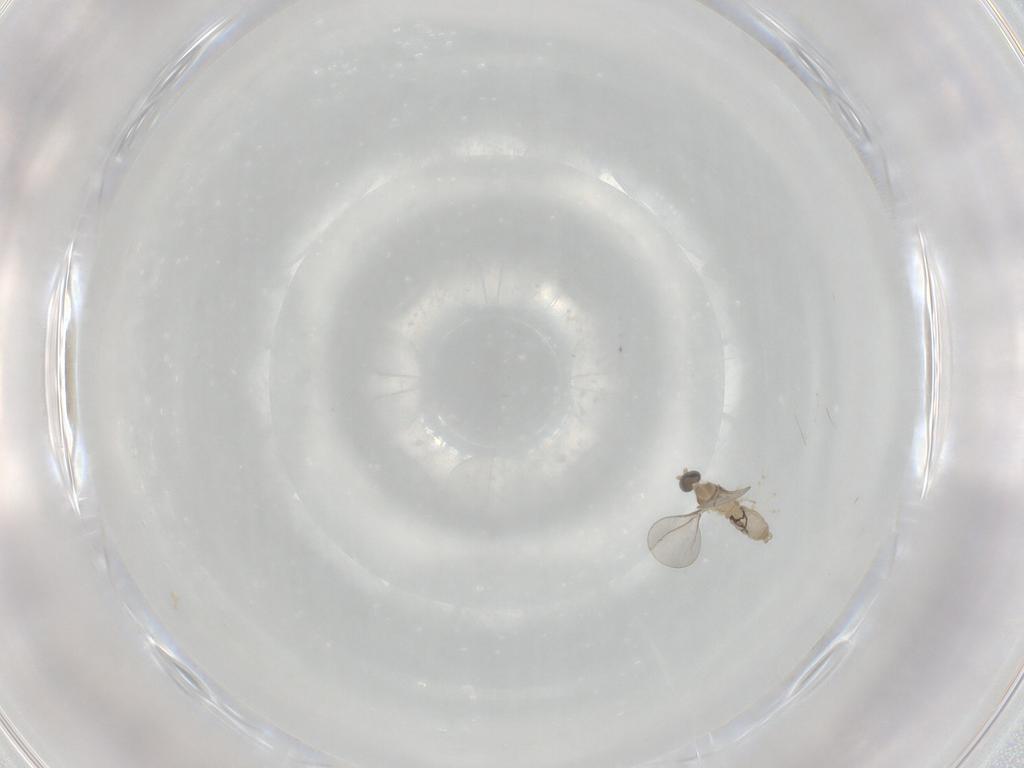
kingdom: Animalia
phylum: Arthropoda
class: Insecta
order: Diptera
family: Cecidomyiidae
